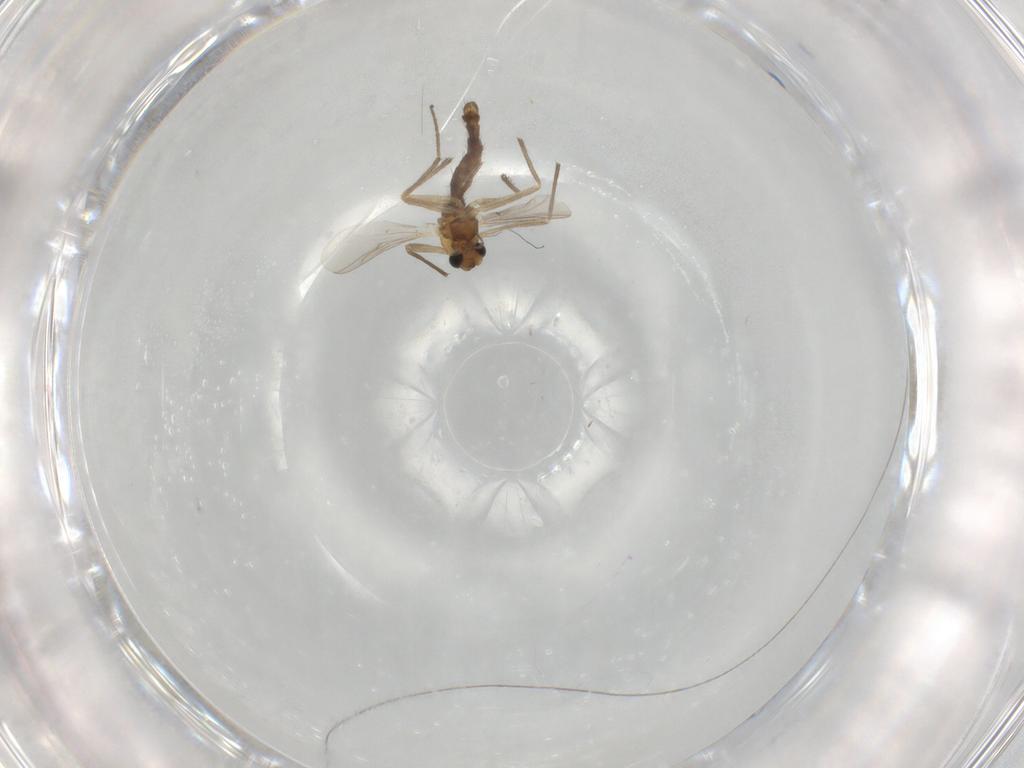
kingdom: Animalia
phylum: Arthropoda
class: Insecta
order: Diptera
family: Chironomidae
